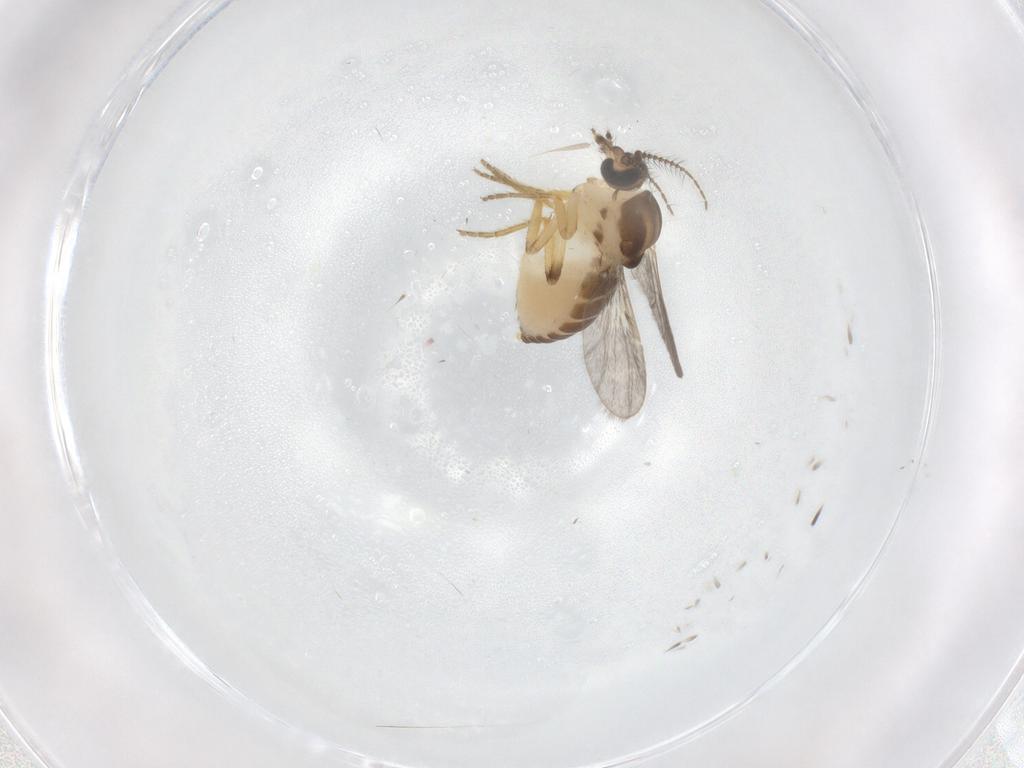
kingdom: Animalia
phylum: Arthropoda
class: Insecta
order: Diptera
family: Ceratopogonidae
